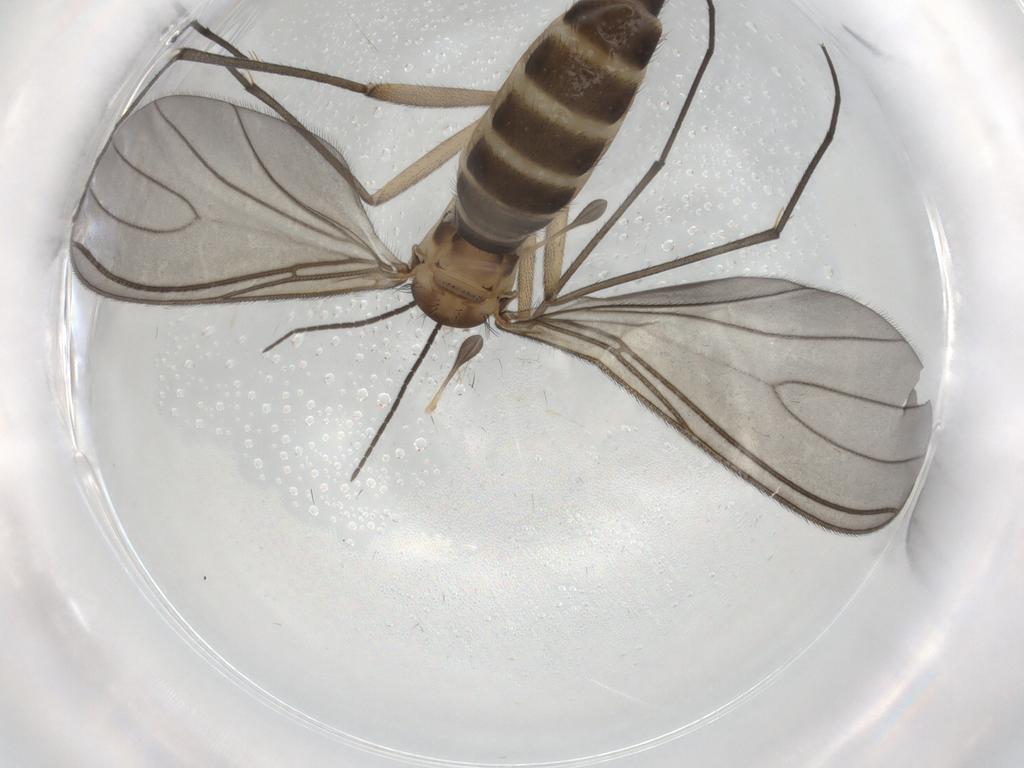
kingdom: Animalia
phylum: Arthropoda
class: Insecta
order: Diptera
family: Sciaridae
